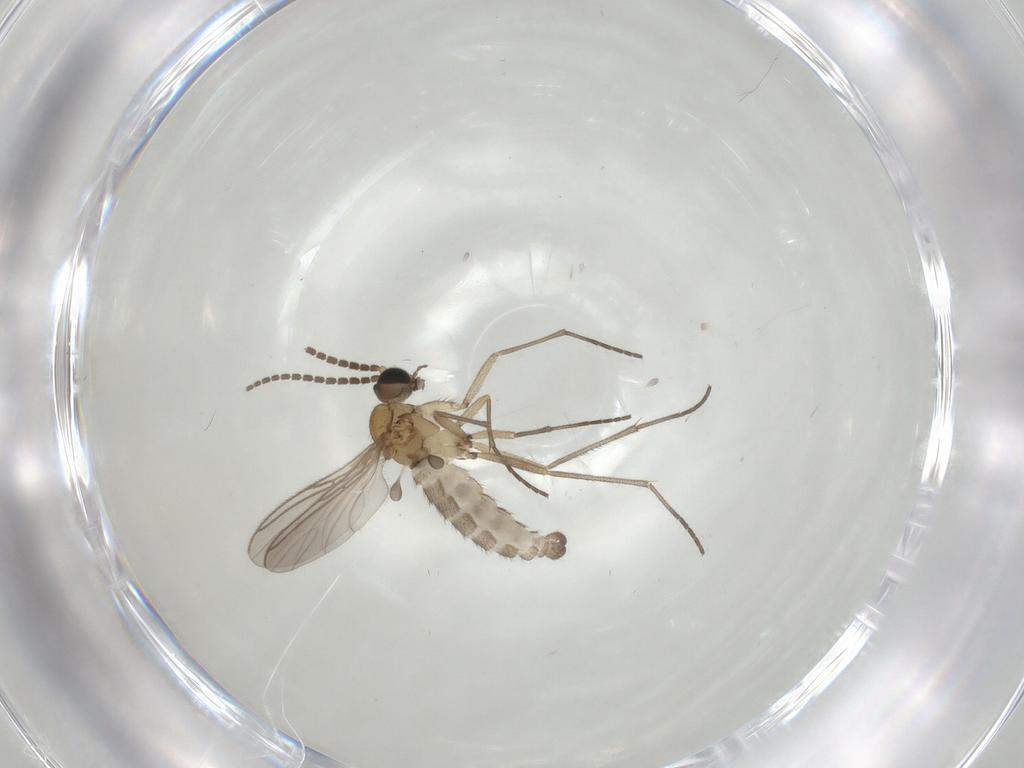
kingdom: Animalia
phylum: Arthropoda
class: Insecta
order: Diptera
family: Sciaridae
